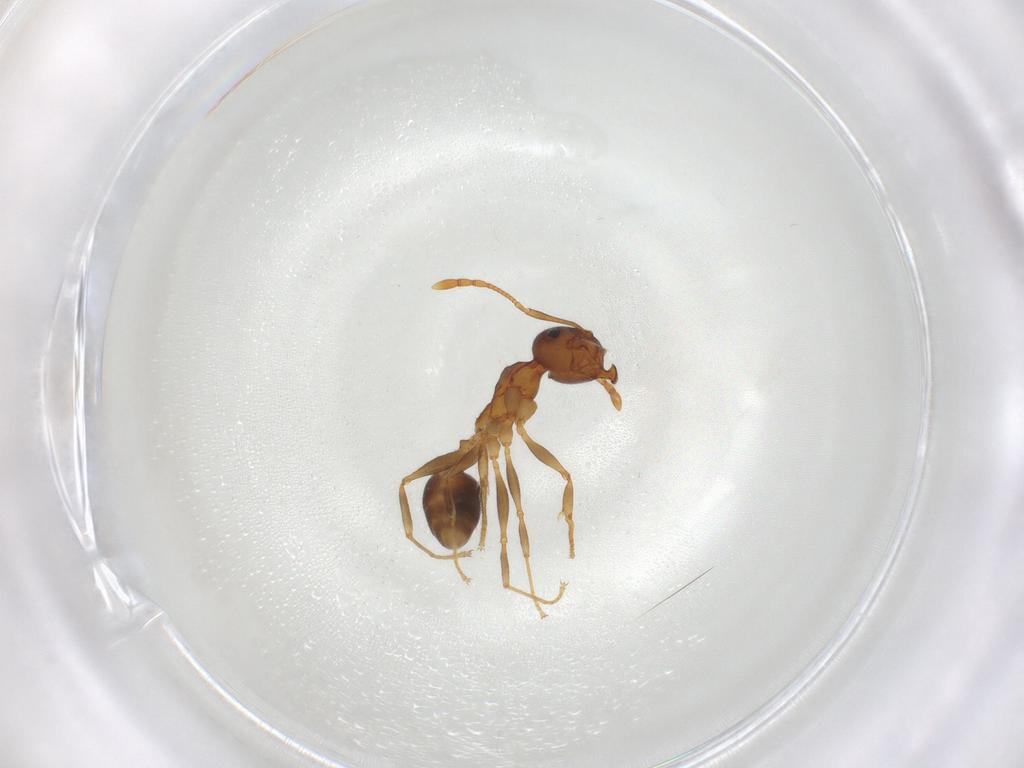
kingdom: Animalia
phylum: Arthropoda
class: Insecta
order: Hymenoptera
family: Formicidae
